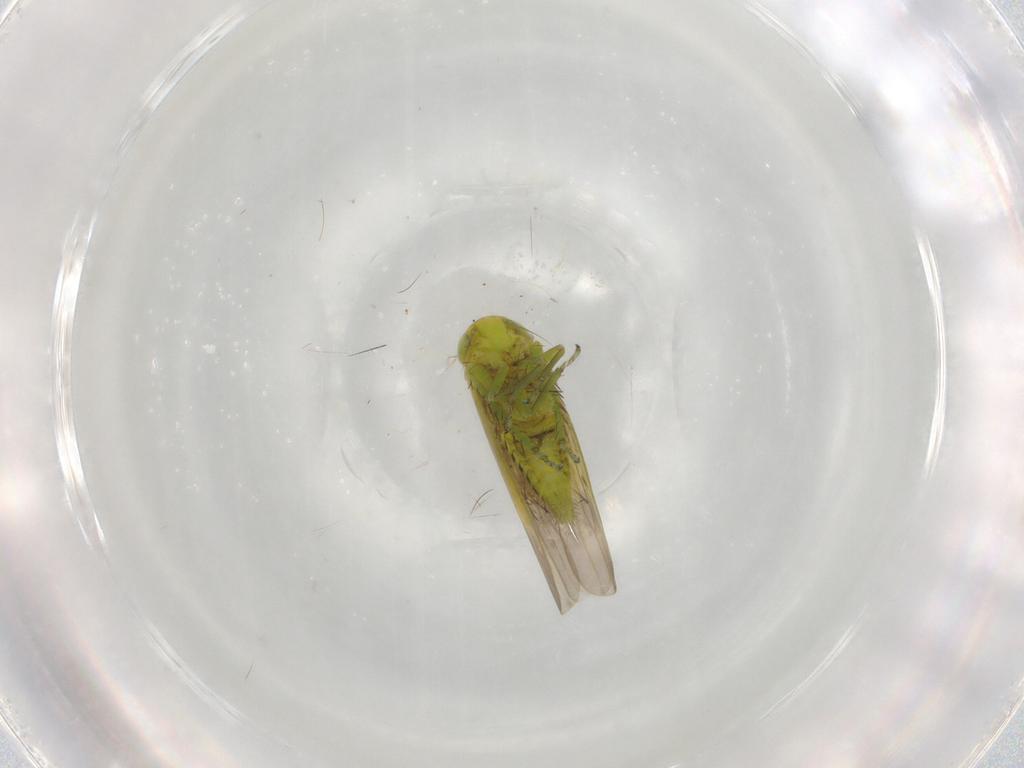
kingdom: Animalia
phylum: Arthropoda
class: Insecta
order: Hemiptera
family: Cicadellidae
